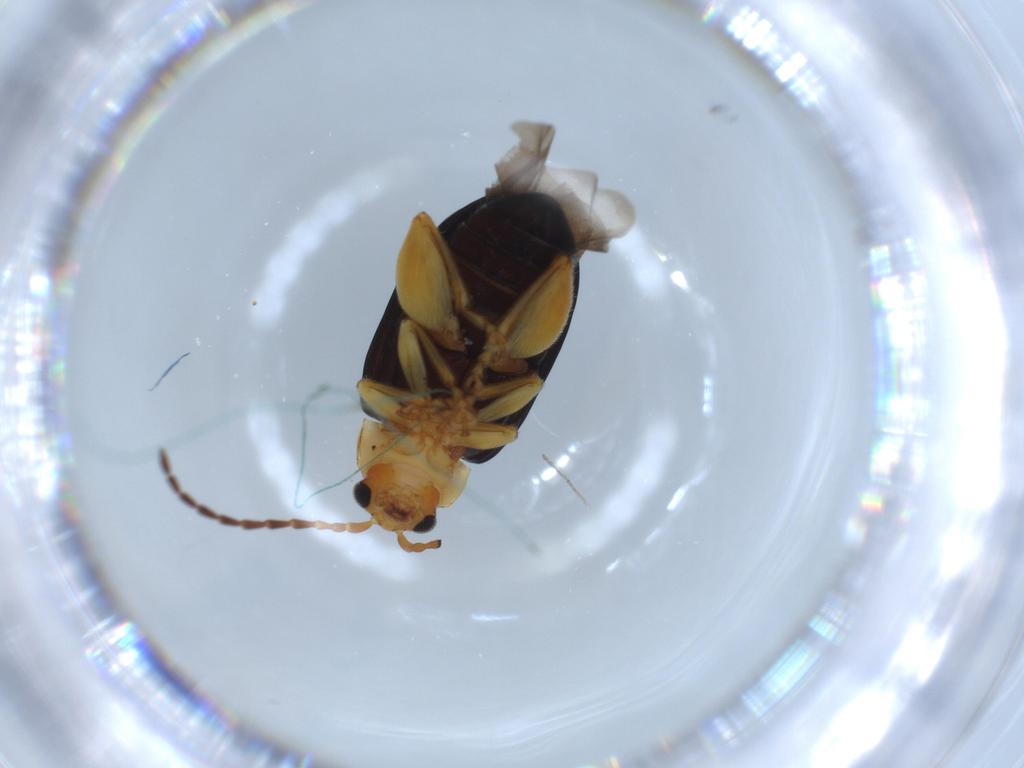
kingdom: Animalia
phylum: Arthropoda
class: Insecta
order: Coleoptera
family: Chrysomelidae
